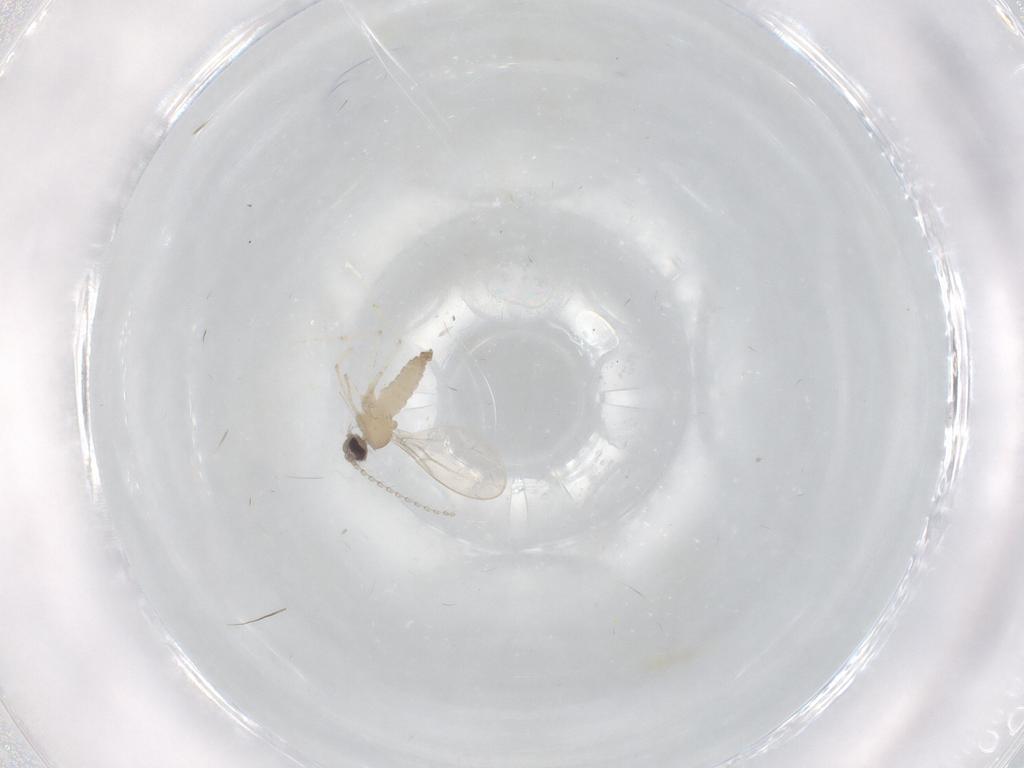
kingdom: Animalia
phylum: Arthropoda
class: Insecta
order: Diptera
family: Cecidomyiidae
